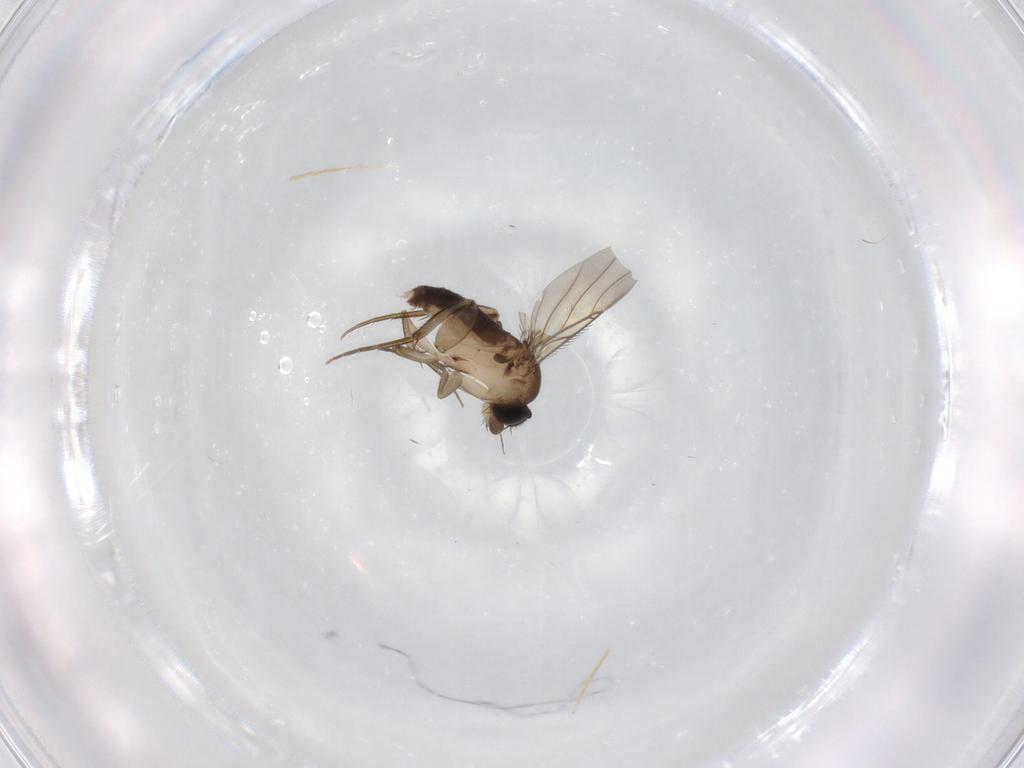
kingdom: Animalia
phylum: Arthropoda
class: Insecta
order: Diptera
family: Phoridae
